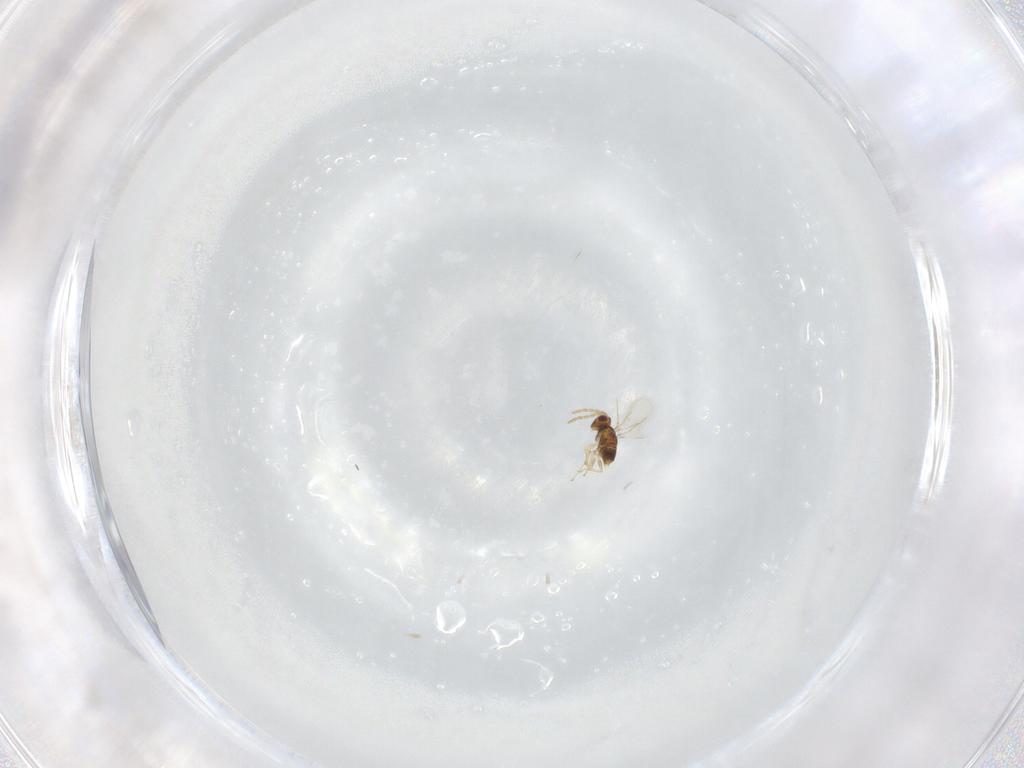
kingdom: Animalia
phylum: Arthropoda
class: Insecta
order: Hymenoptera
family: Aphelinidae
